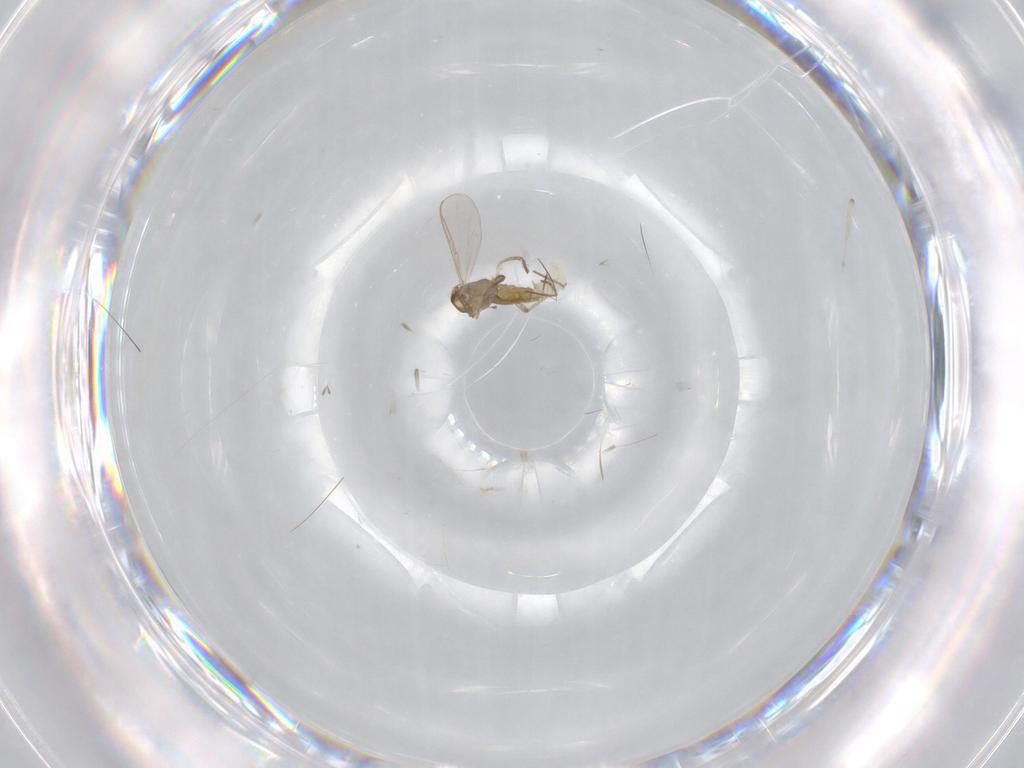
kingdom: Animalia
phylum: Arthropoda
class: Insecta
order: Diptera
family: Chironomidae
